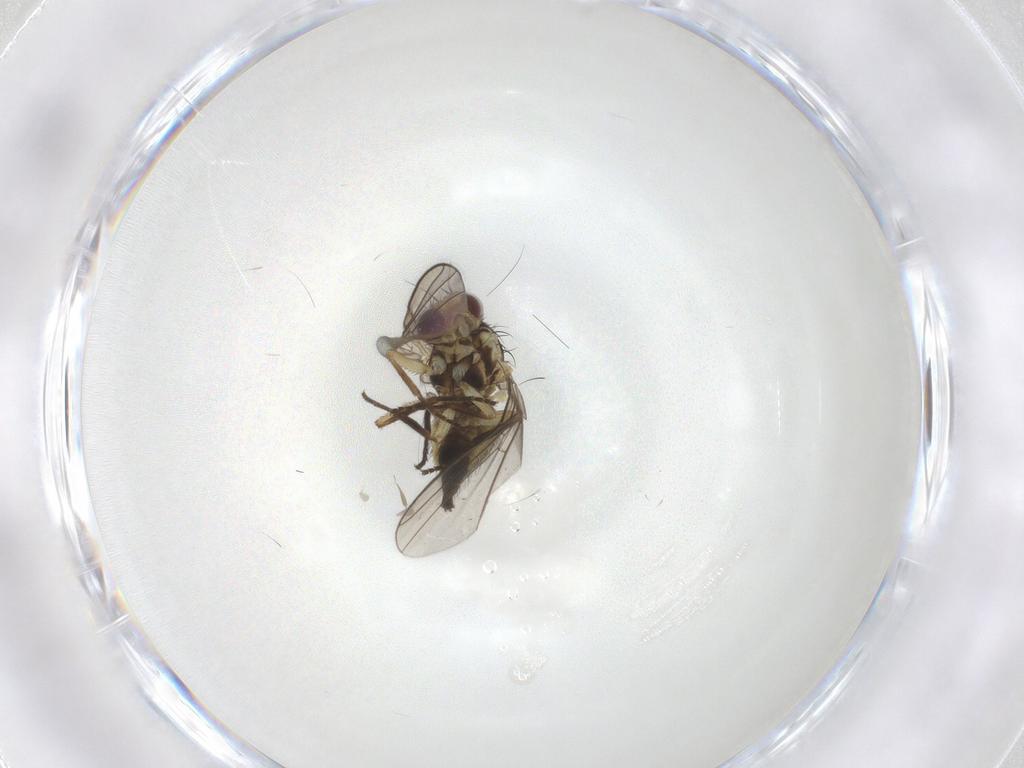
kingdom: Animalia
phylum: Arthropoda
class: Insecta
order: Diptera
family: Agromyzidae
